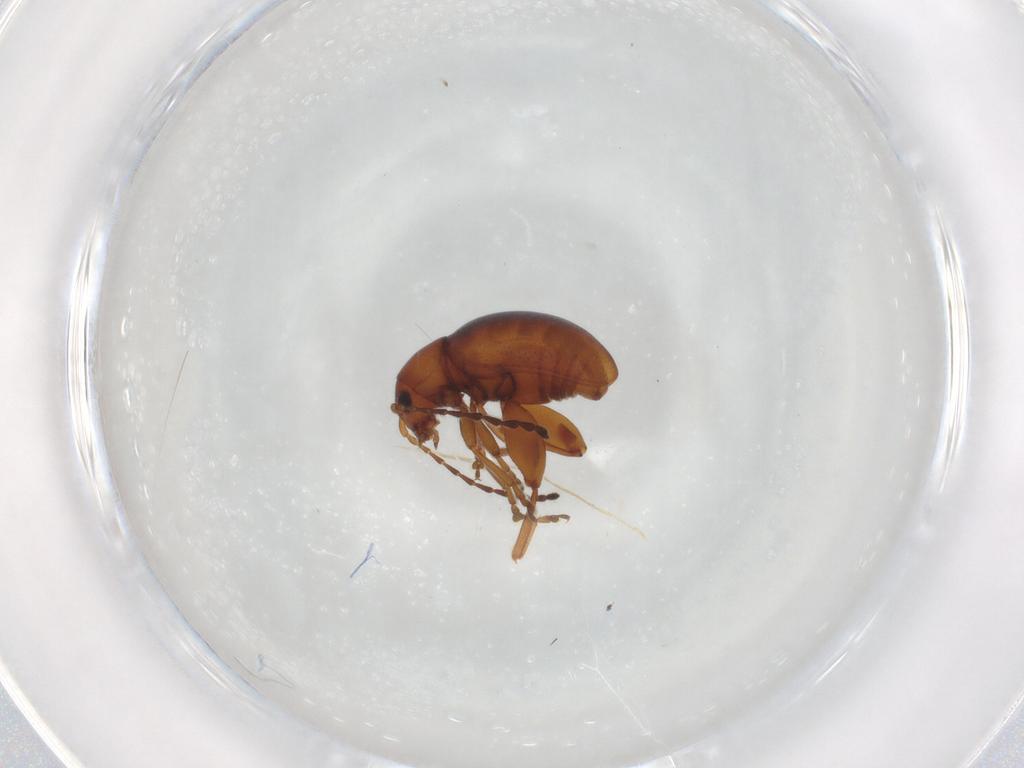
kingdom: Animalia
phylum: Arthropoda
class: Insecta
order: Coleoptera
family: Chrysomelidae
